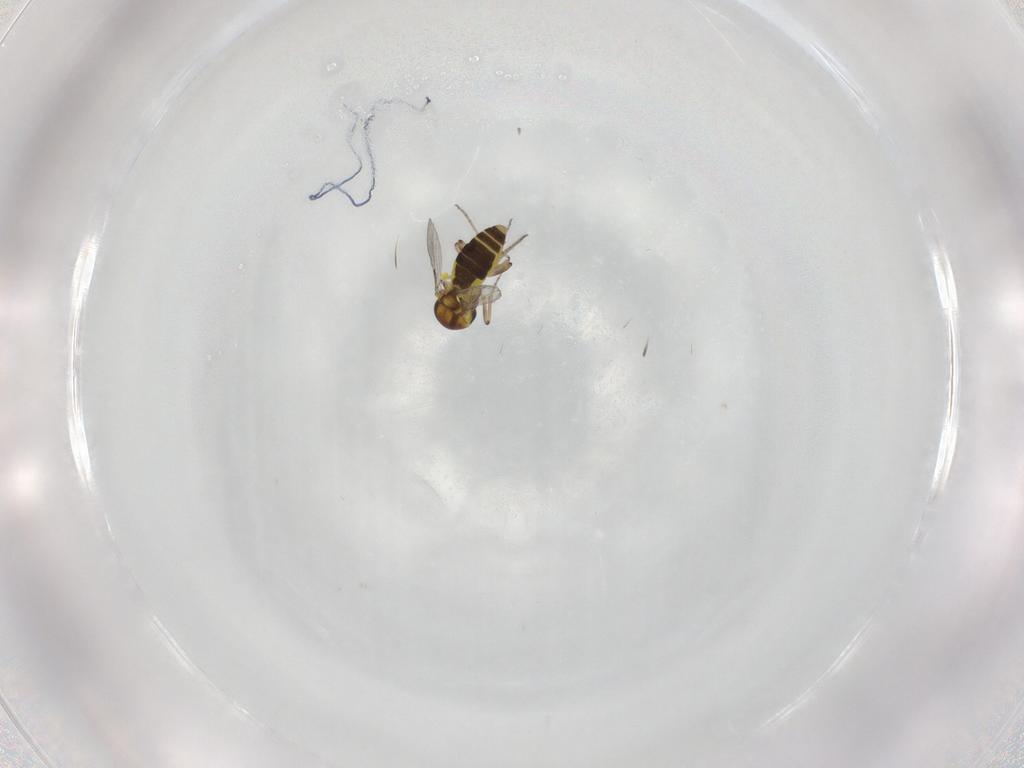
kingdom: Animalia
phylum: Arthropoda
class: Insecta
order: Diptera
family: Ceratopogonidae
